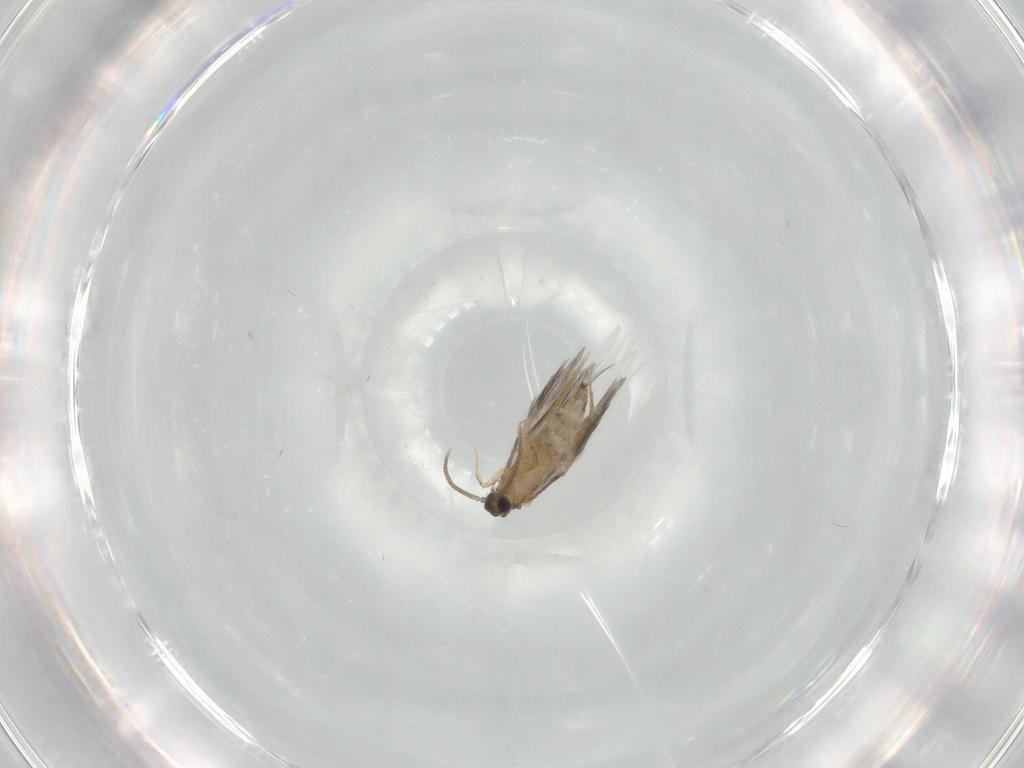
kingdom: Animalia
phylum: Arthropoda
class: Insecta
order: Trichoptera
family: Hydroptilidae
